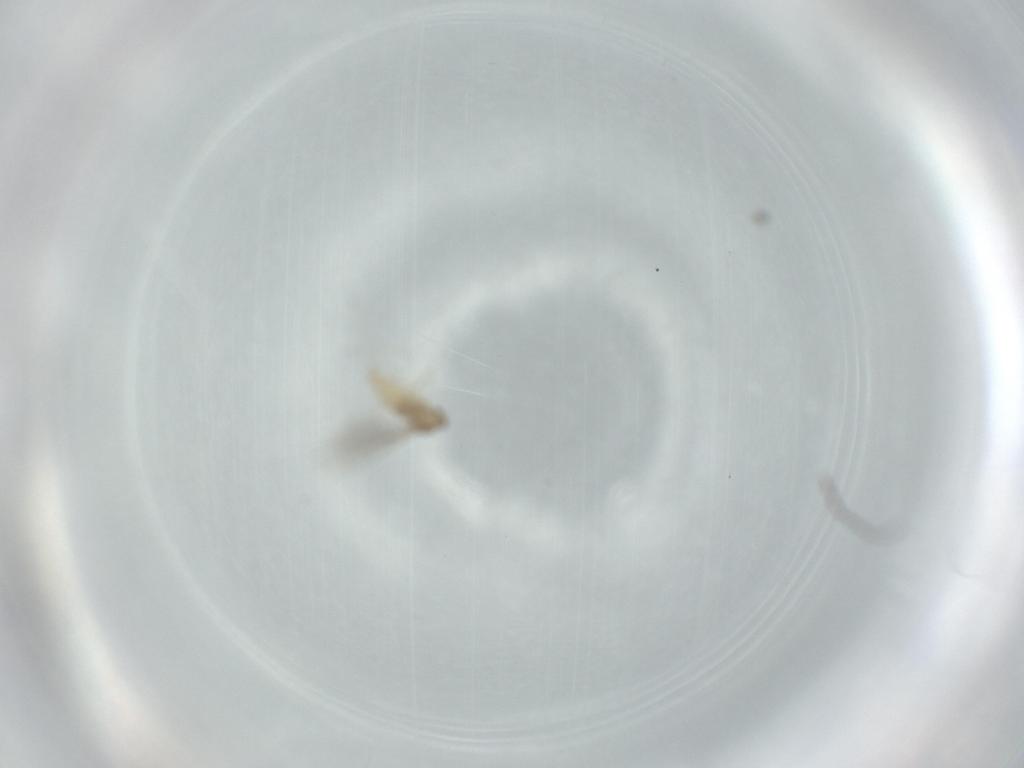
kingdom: Animalia
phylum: Arthropoda
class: Insecta
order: Diptera
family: Cecidomyiidae
